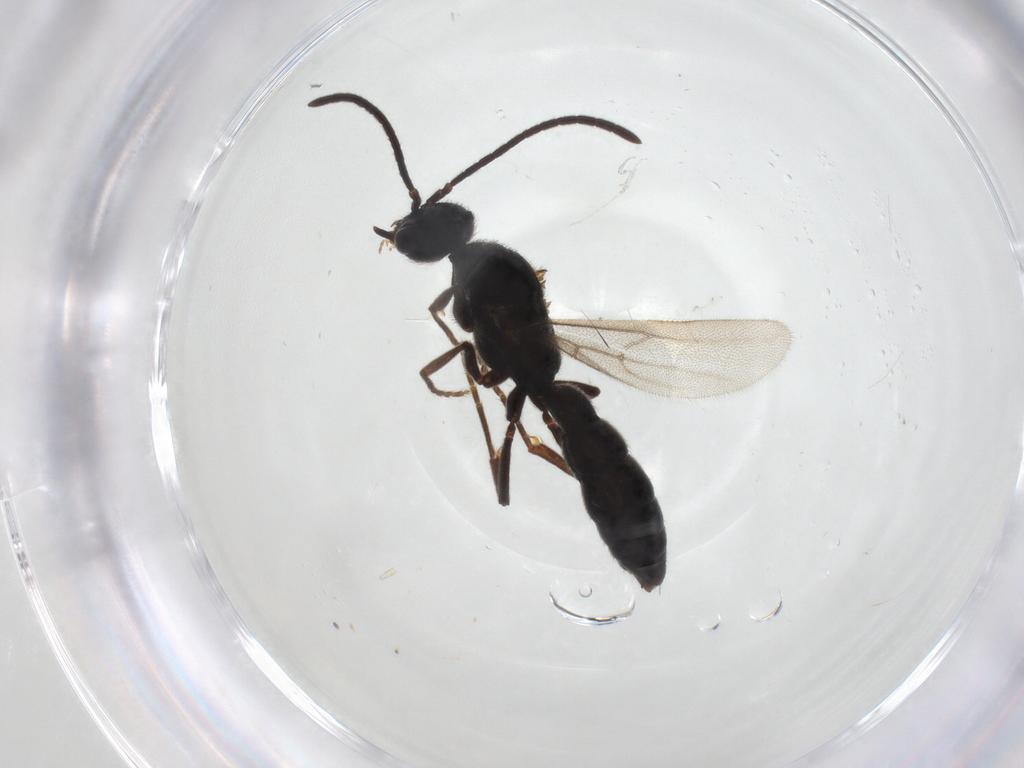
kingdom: Animalia
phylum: Arthropoda
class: Insecta
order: Hymenoptera
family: Formicidae
